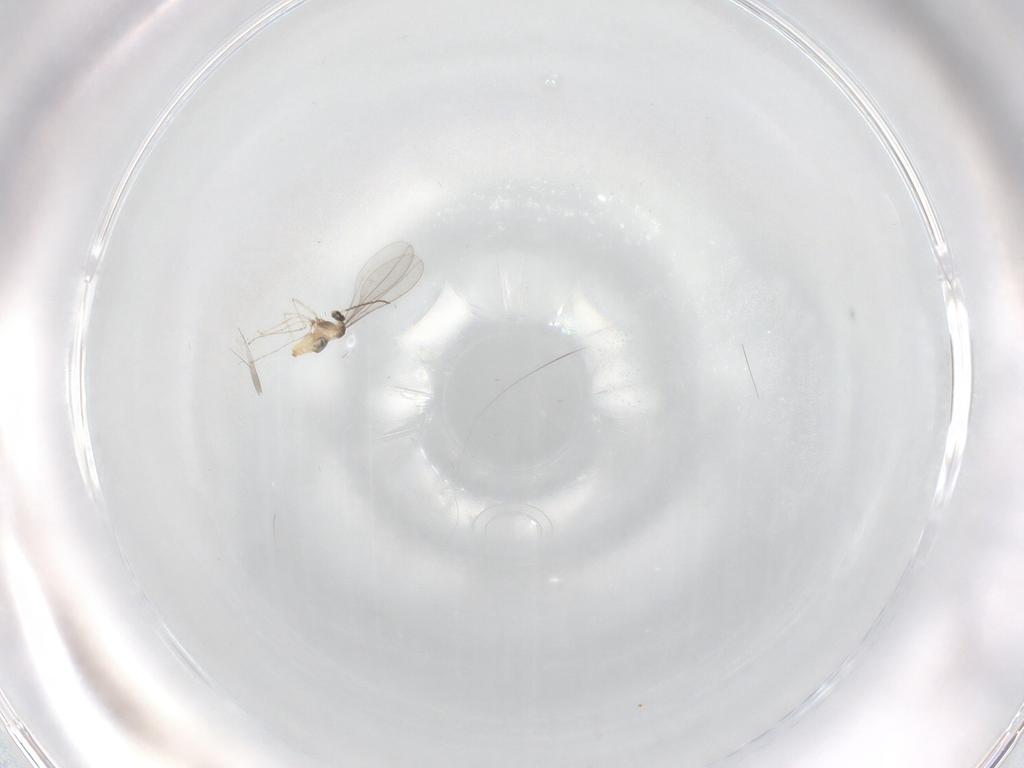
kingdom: Animalia
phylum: Arthropoda
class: Insecta
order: Diptera
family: Cecidomyiidae
